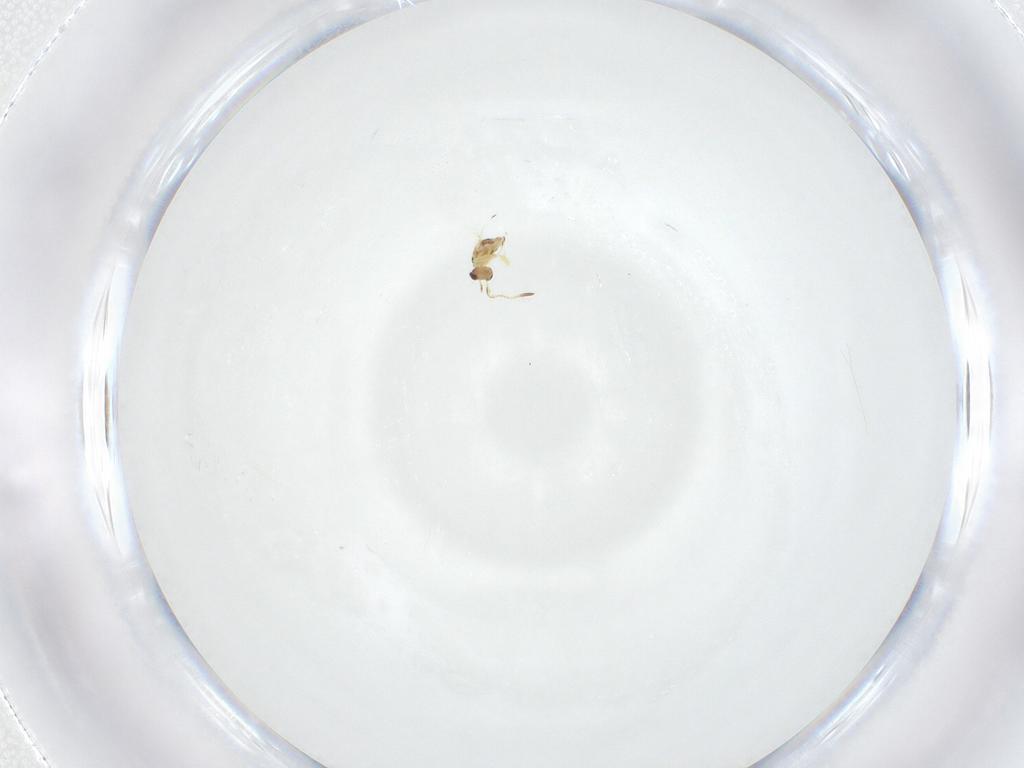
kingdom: Animalia
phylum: Arthropoda
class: Insecta
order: Hymenoptera
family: Mymaridae
